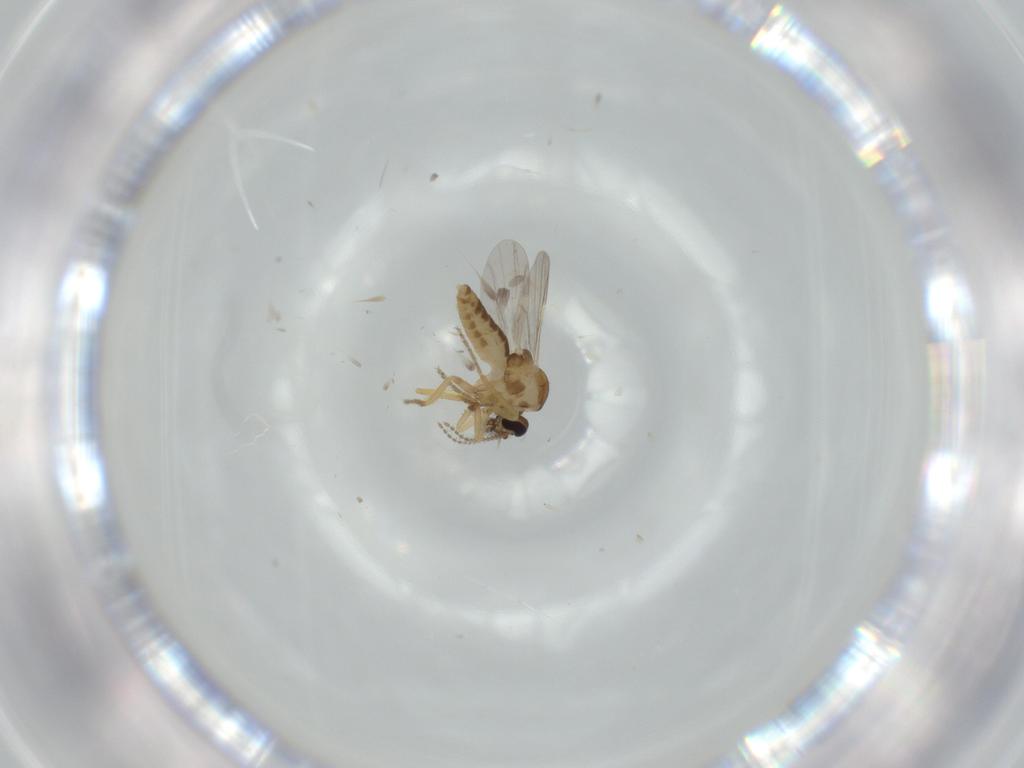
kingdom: Animalia
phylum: Arthropoda
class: Insecta
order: Diptera
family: Ceratopogonidae
